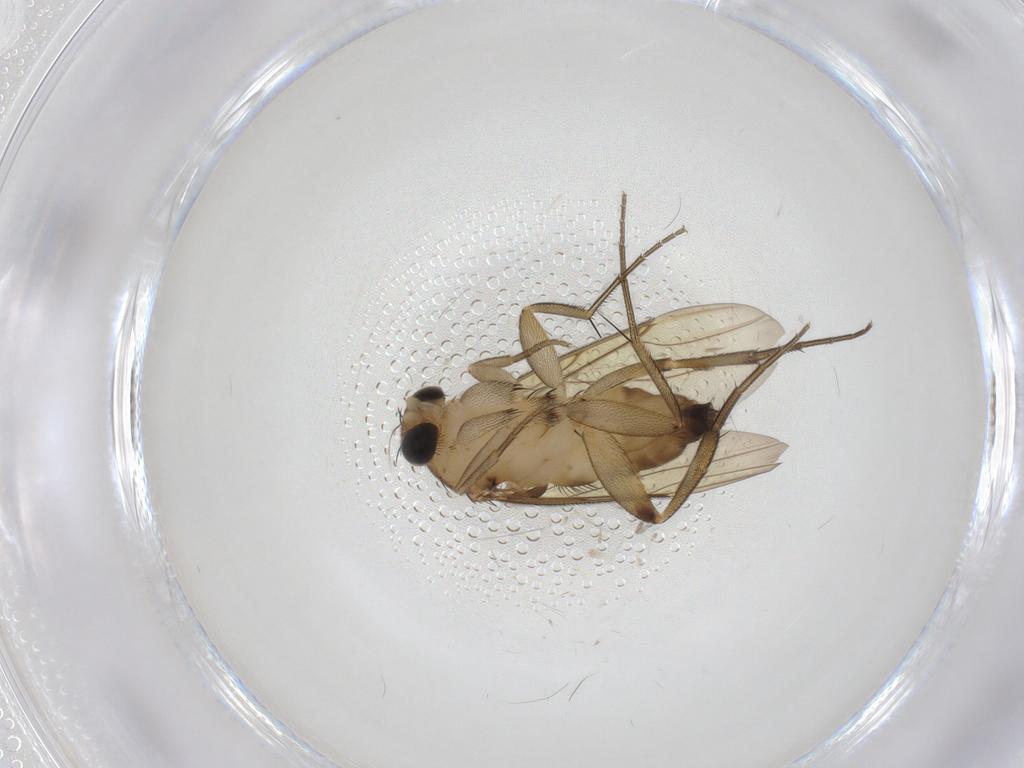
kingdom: Animalia
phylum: Arthropoda
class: Insecta
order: Diptera
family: Phoridae
